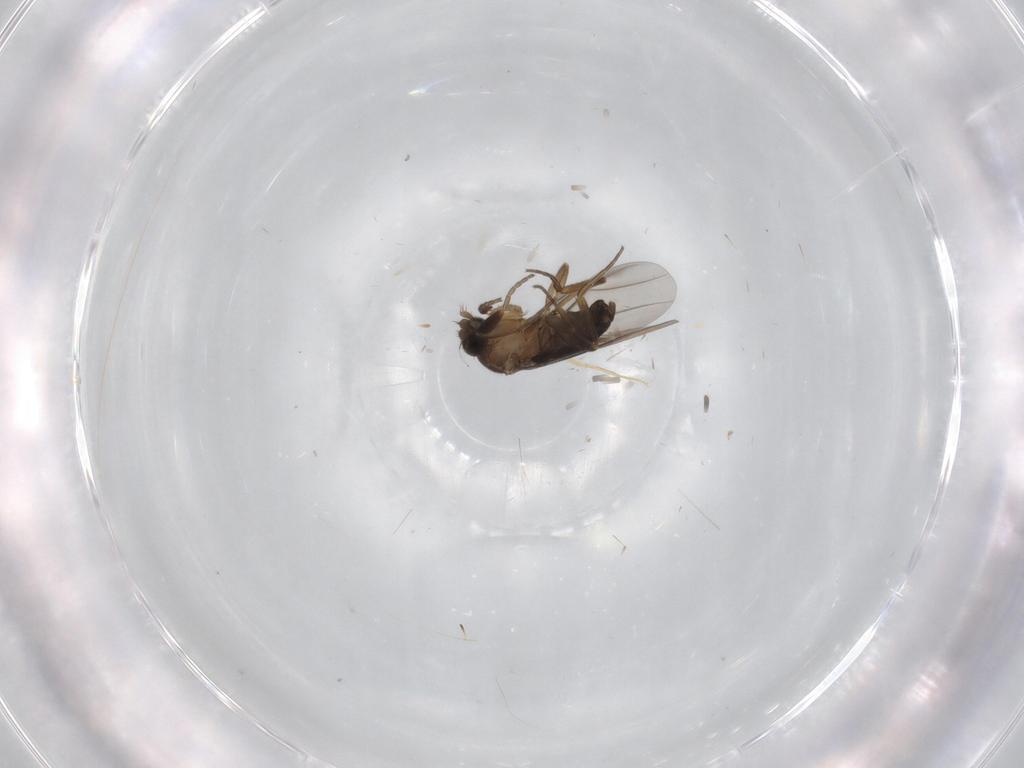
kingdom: Animalia
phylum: Arthropoda
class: Insecta
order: Diptera
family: Phoridae
